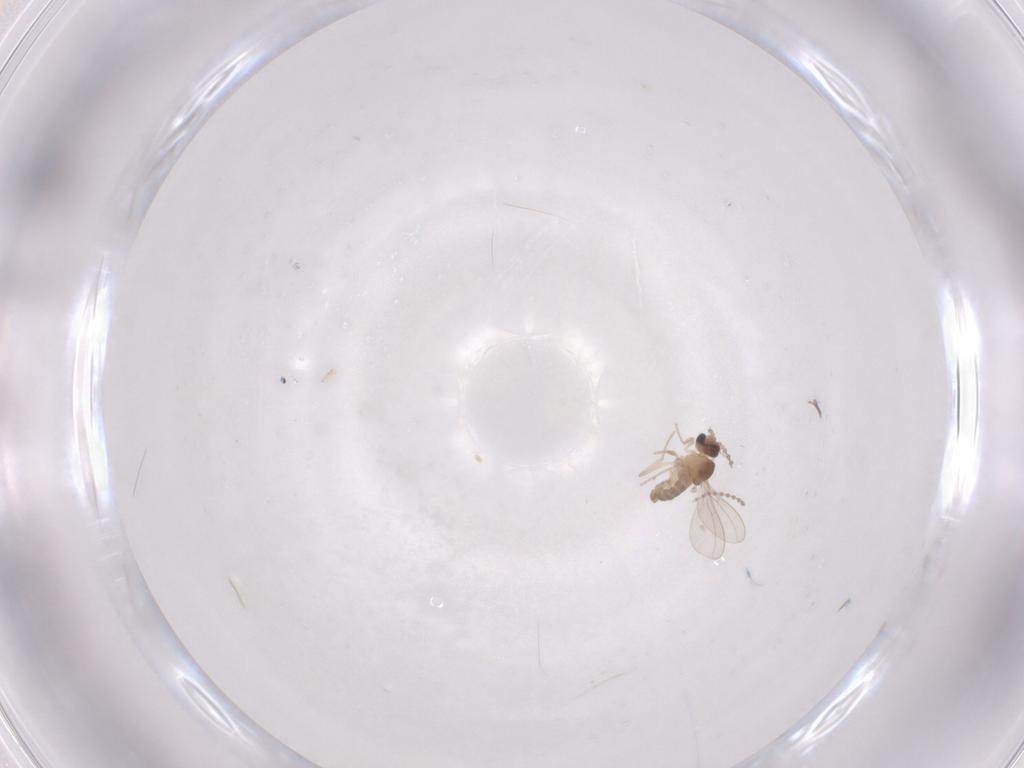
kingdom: Animalia
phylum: Arthropoda
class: Insecta
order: Diptera
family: Cecidomyiidae
